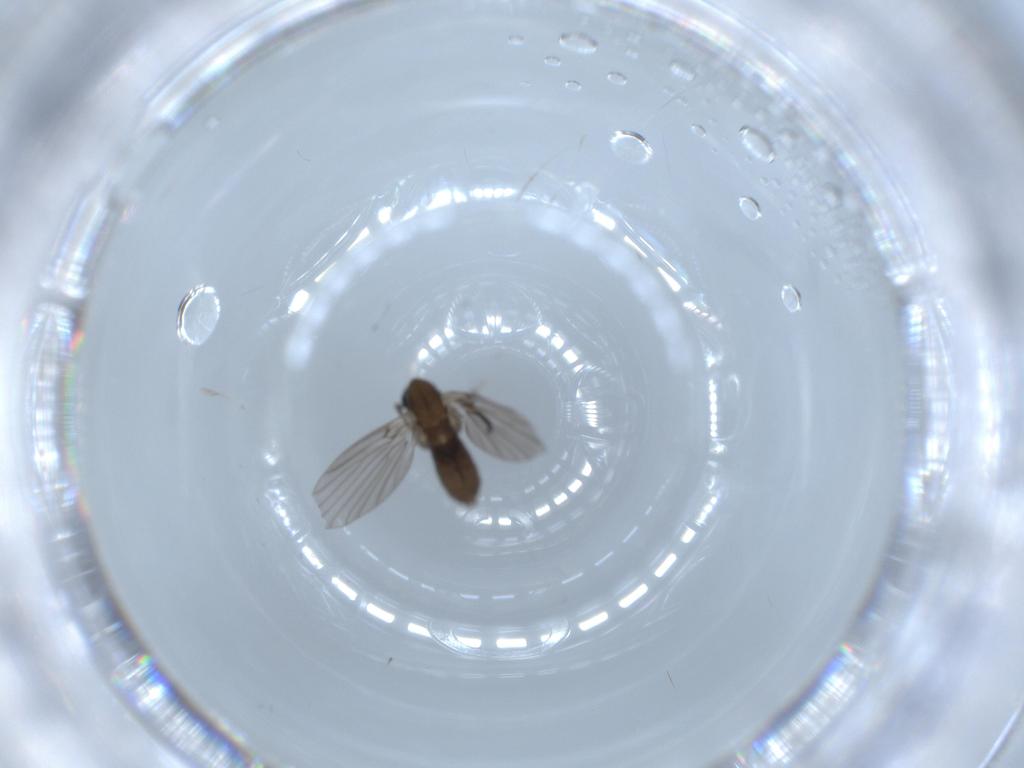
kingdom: Animalia
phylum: Arthropoda
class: Insecta
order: Diptera
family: Psychodidae
